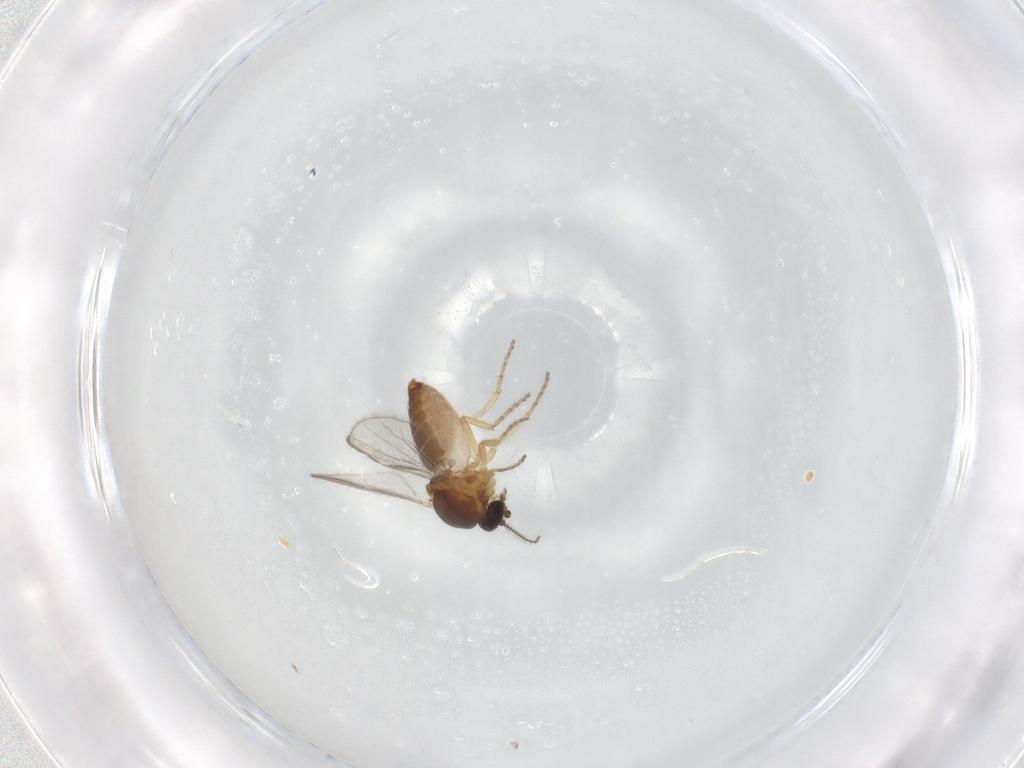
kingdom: Animalia
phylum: Arthropoda
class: Insecta
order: Diptera
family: Ceratopogonidae
